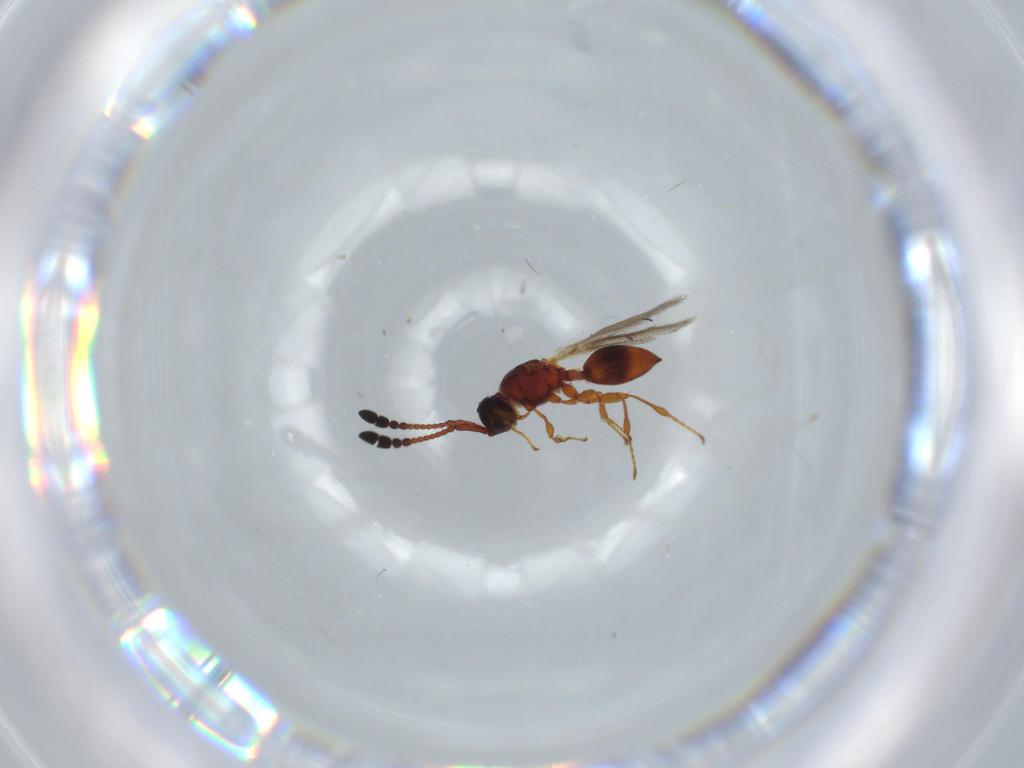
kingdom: Animalia
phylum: Arthropoda
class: Insecta
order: Hymenoptera
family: Diapriidae
